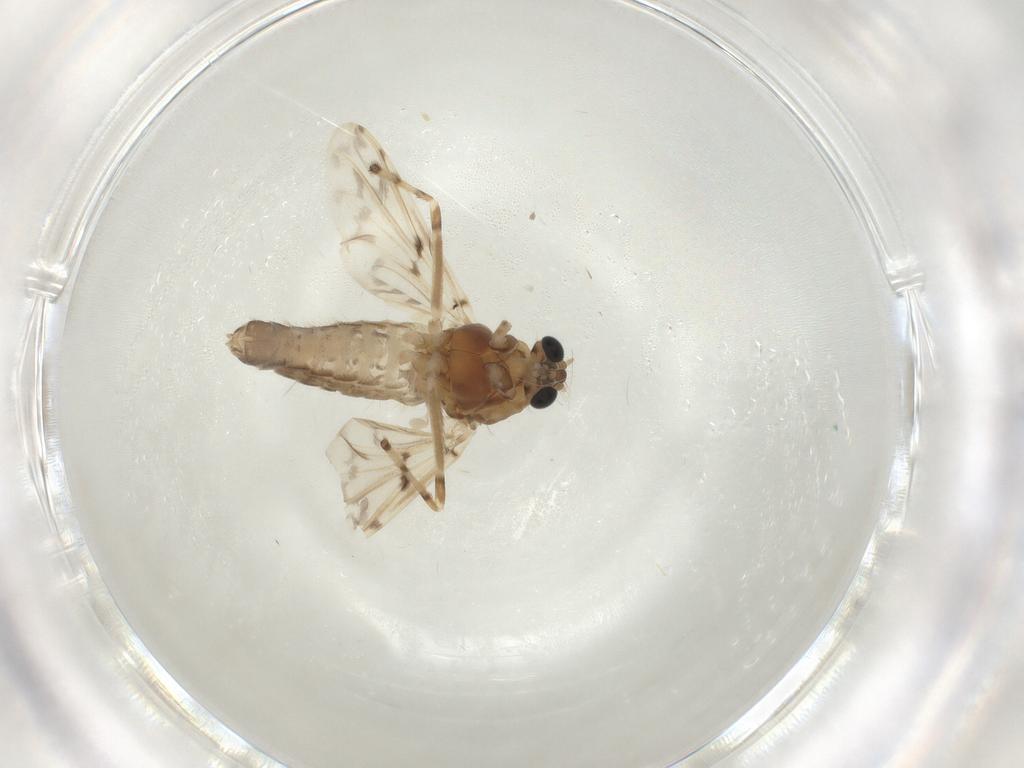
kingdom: Animalia
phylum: Arthropoda
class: Insecta
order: Diptera
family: Chironomidae
